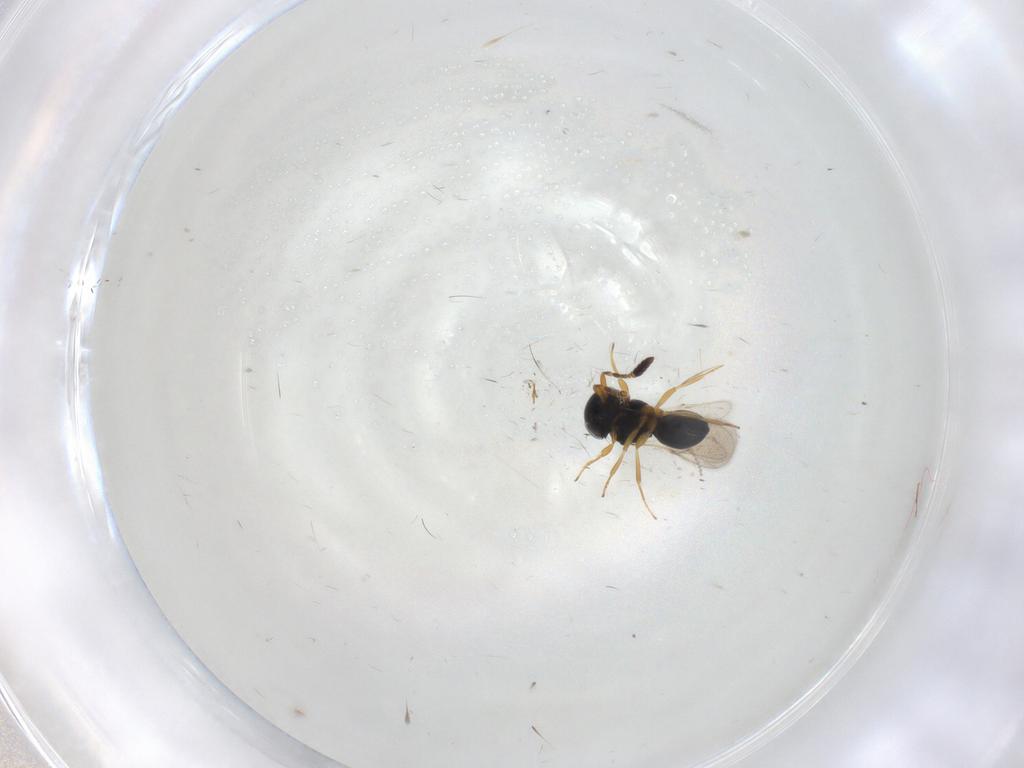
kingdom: Animalia
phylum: Arthropoda
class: Insecta
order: Hymenoptera
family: Scelionidae
